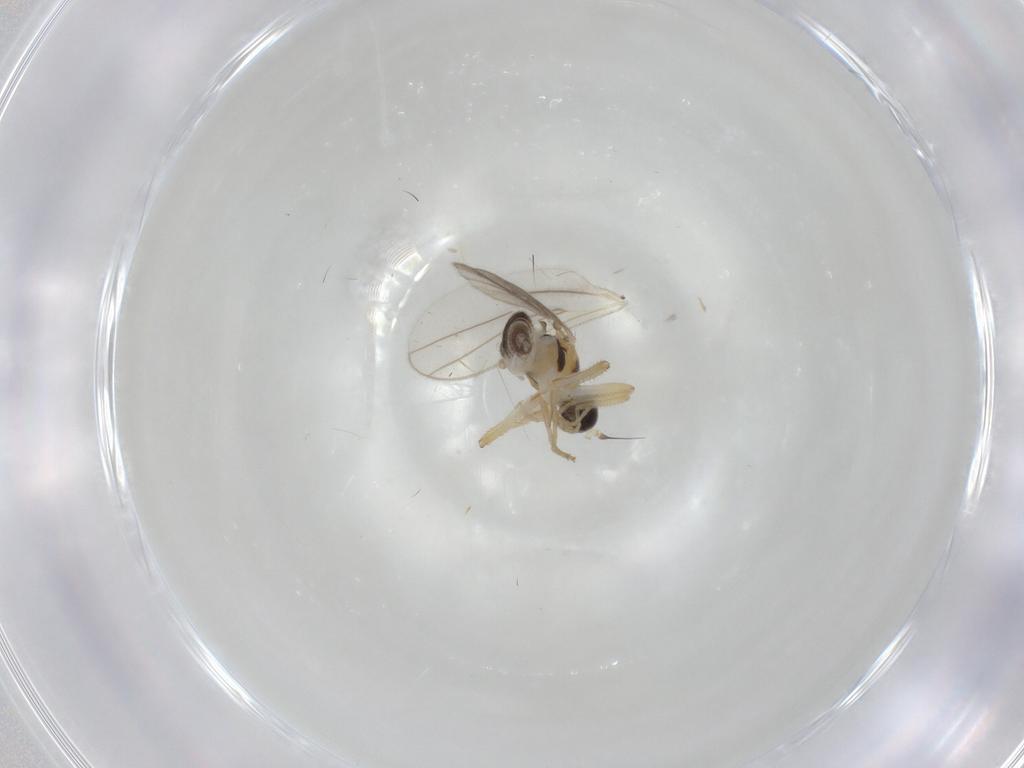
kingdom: Animalia
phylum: Arthropoda
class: Insecta
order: Diptera
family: Hybotidae
